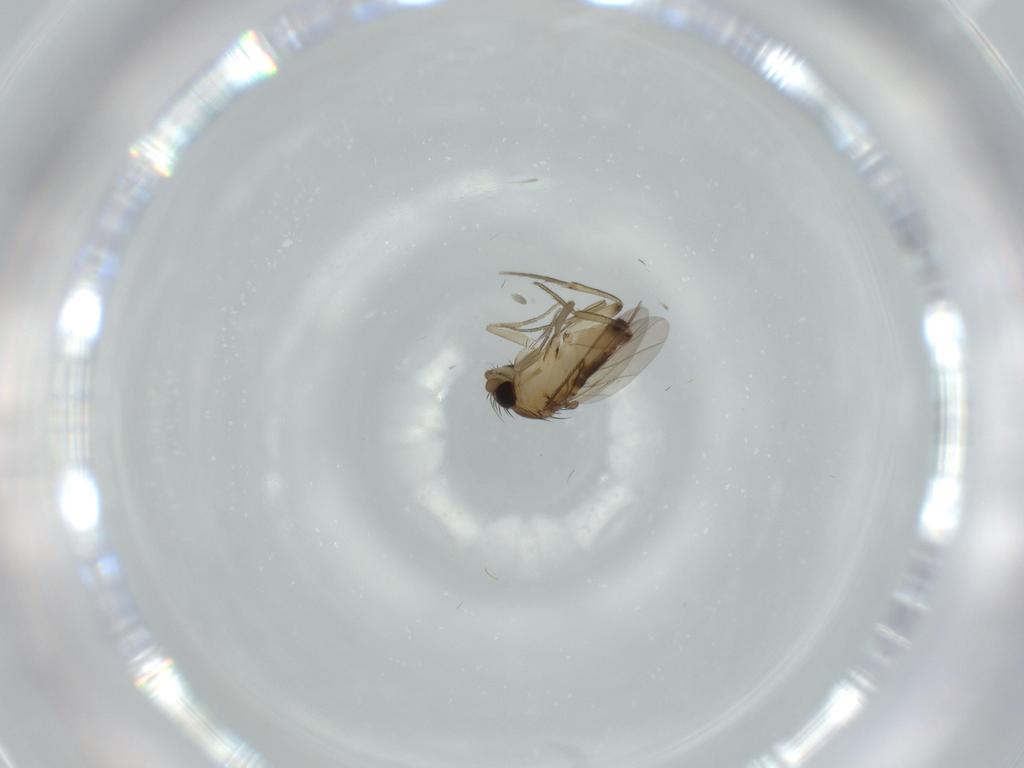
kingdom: Animalia
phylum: Arthropoda
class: Insecta
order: Diptera
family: Phoridae
